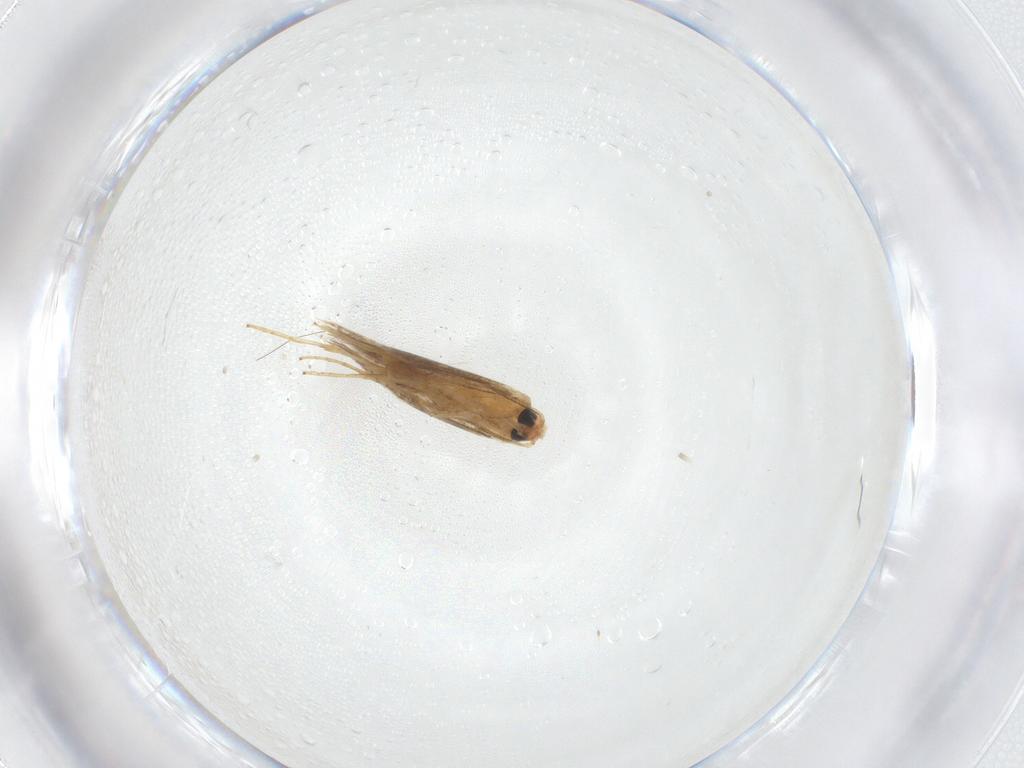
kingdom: Animalia
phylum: Arthropoda
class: Insecta
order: Lepidoptera
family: Tischeriidae
